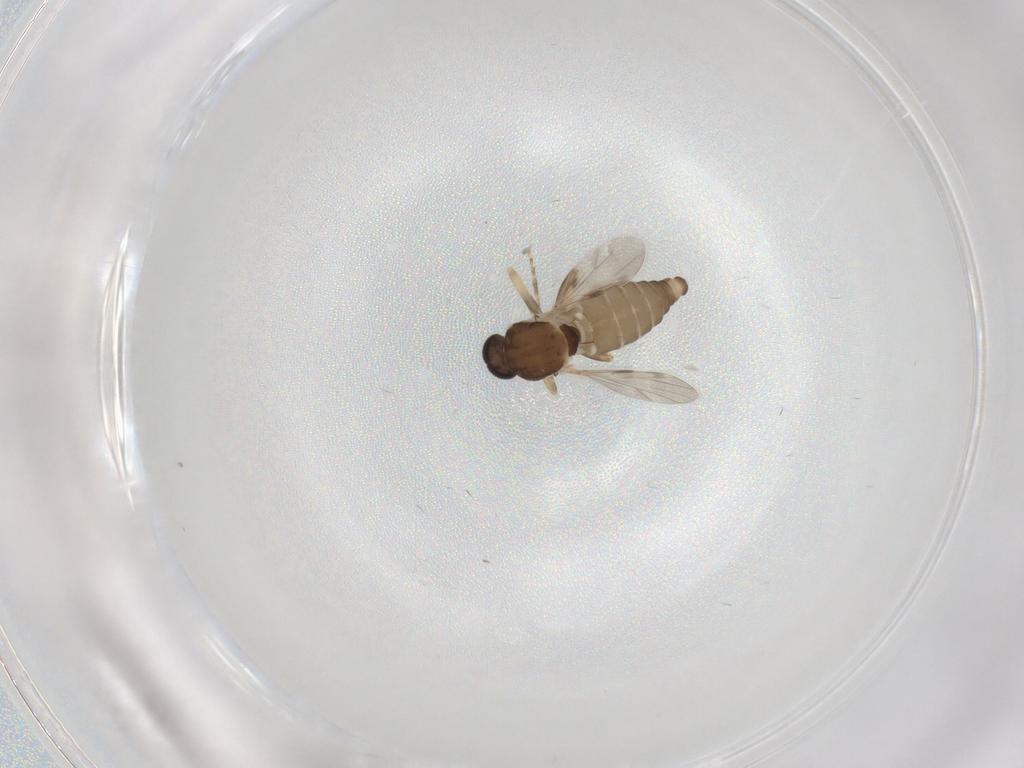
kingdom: Animalia
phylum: Arthropoda
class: Insecta
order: Diptera
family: Ceratopogonidae
